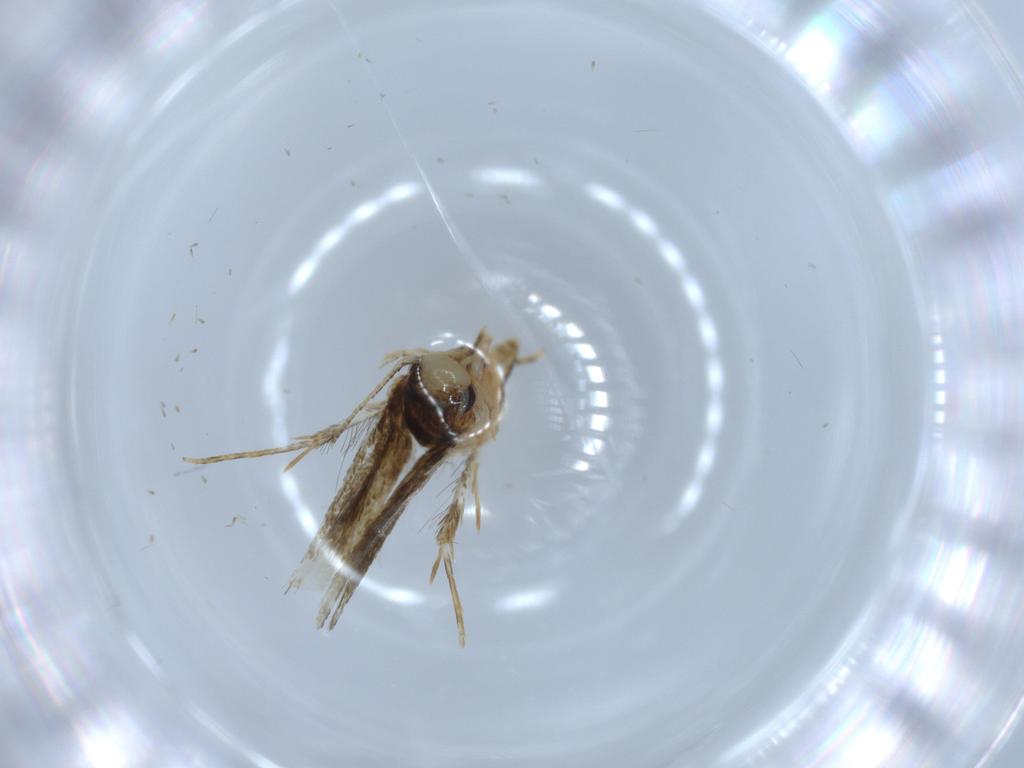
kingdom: Animalia
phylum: Arthropoda
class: Insecta
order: Lepidoptera
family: Tineidae
